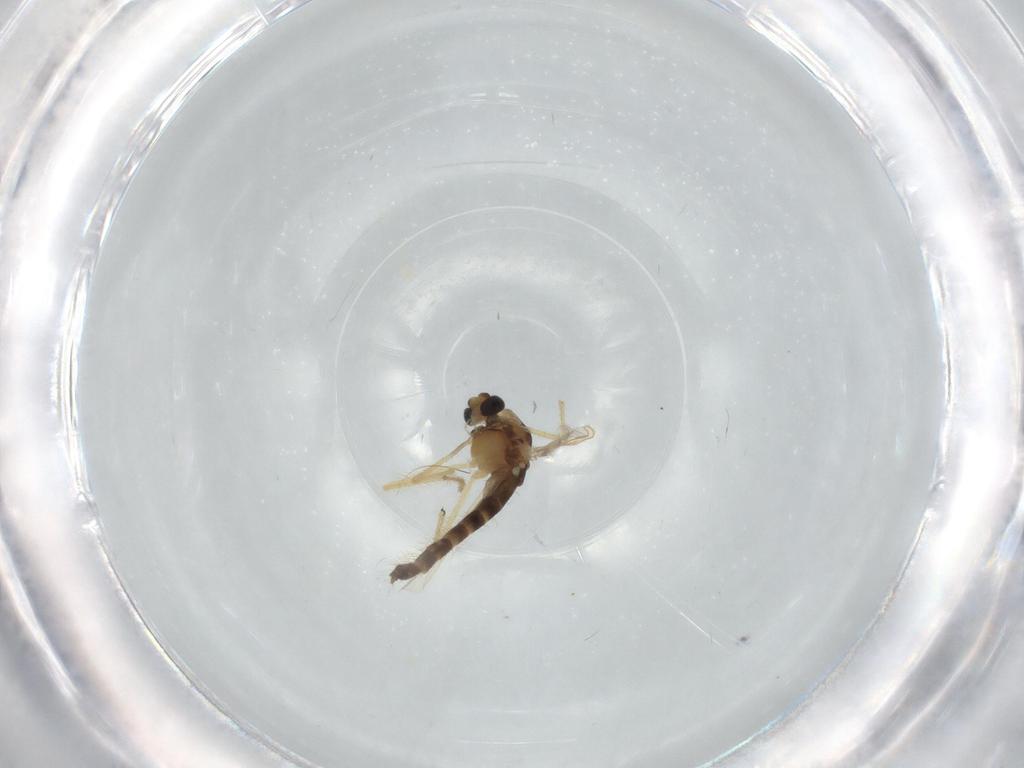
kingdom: Animalia
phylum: Arthropoda
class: Insecta
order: Diptera
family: Chironomidae
